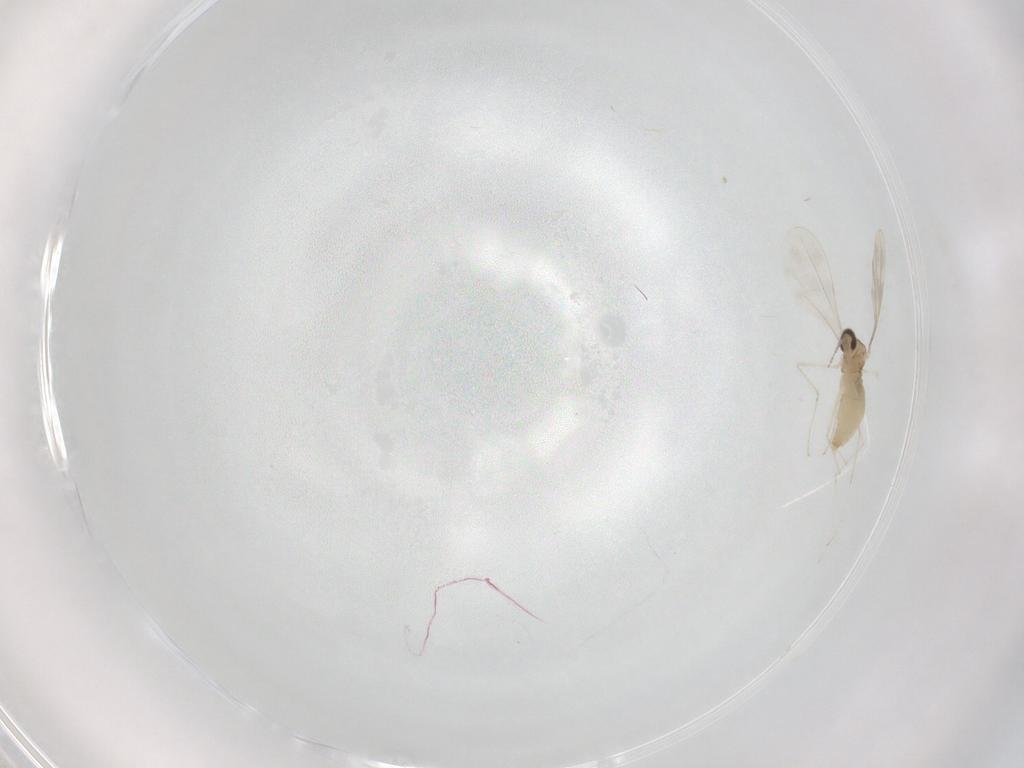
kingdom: Animalia
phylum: Arthropoda
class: Insecta
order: Diptera
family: Cecidomyiidae
